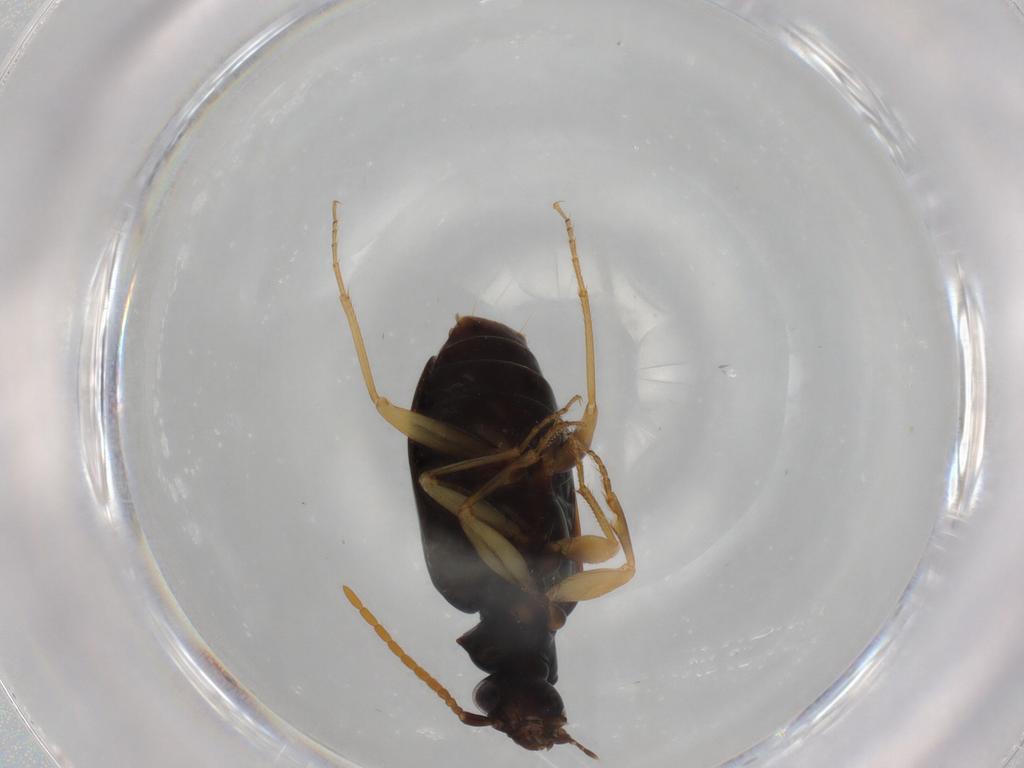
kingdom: Animalia
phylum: Arthropoda
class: Insecta
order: Coleoptera
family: Carabidae
